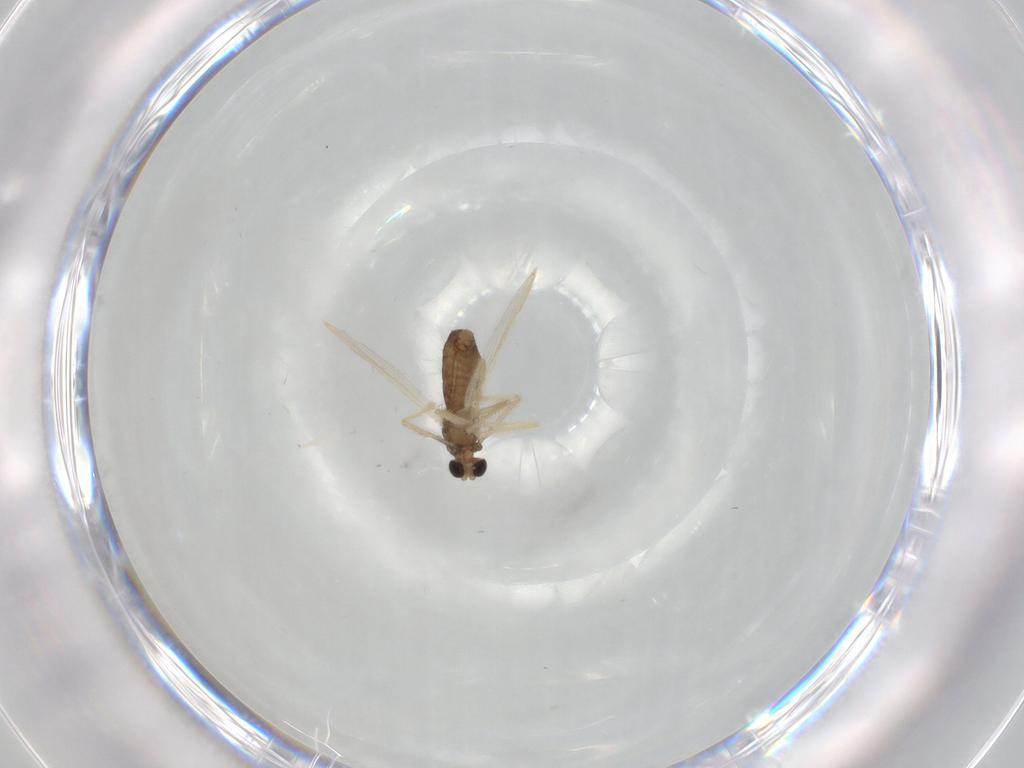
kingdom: Animalia
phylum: Arthropoda
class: Insecta
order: Diptera
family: Chironomidae
